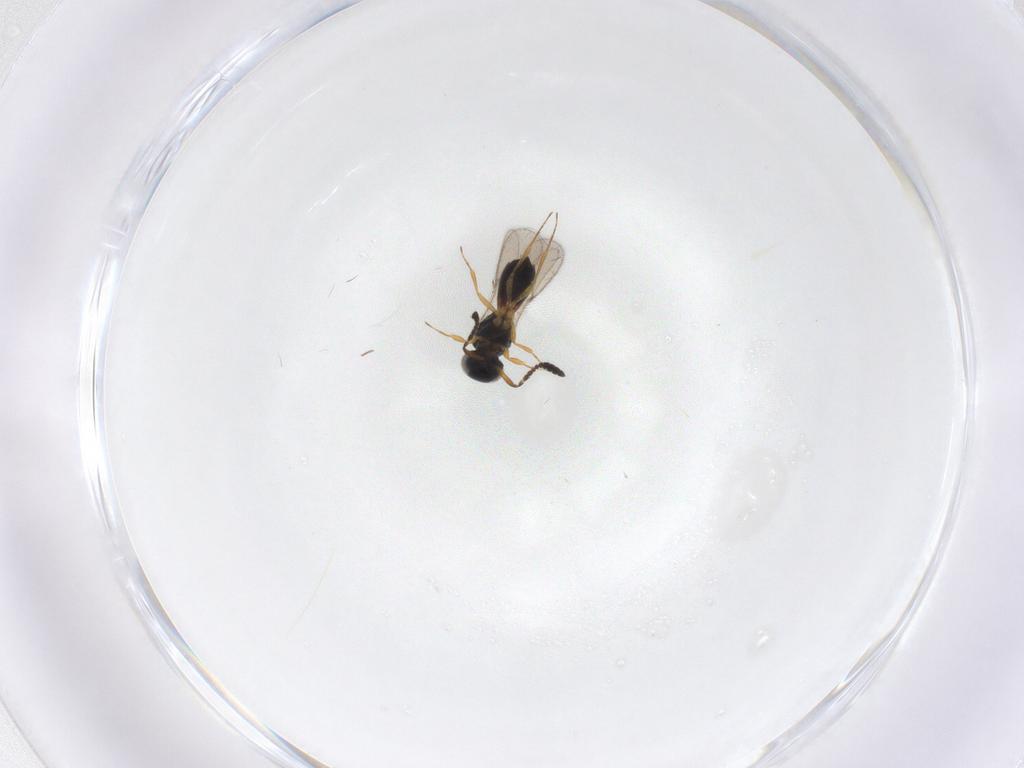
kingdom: Animalia
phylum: Arthropoda
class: Insecta
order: Hymenoptera
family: Scelionidae
